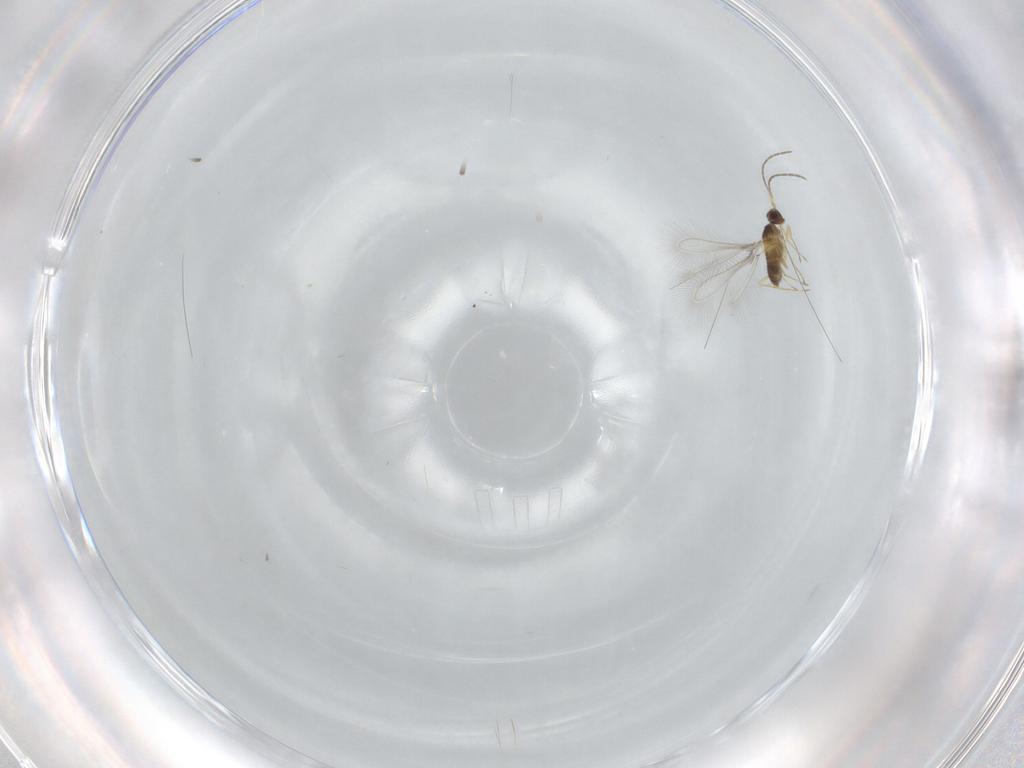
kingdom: Animalia
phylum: Arthropoda
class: Insecta
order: Hymenoptera
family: Mymaridae
